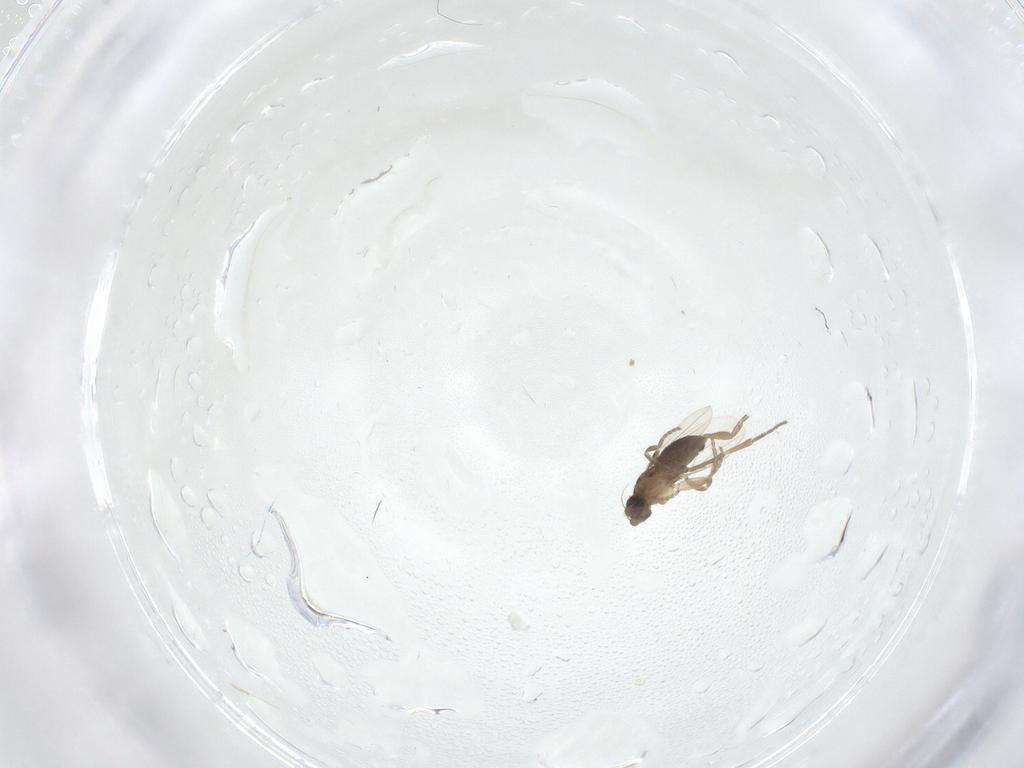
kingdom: Animalia
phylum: Arthropoda
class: Insecta
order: Diptera
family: Phoridae
